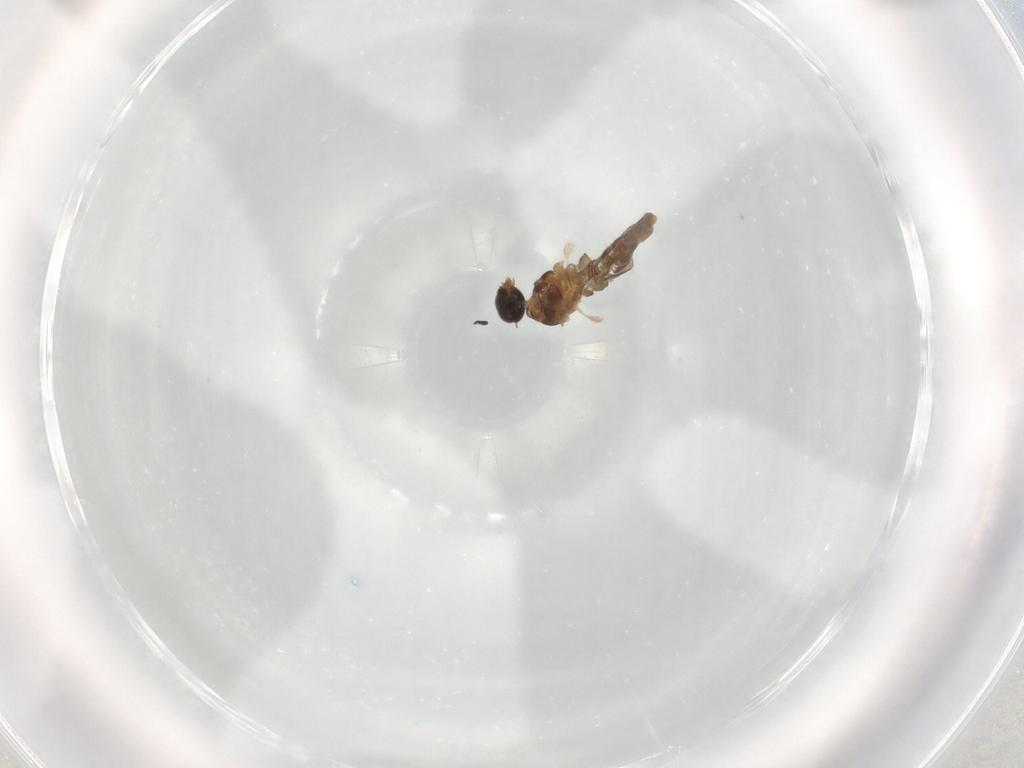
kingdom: Animalia
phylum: Arthropoda
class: Insecta
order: Diptera
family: Cecidomyiidae
